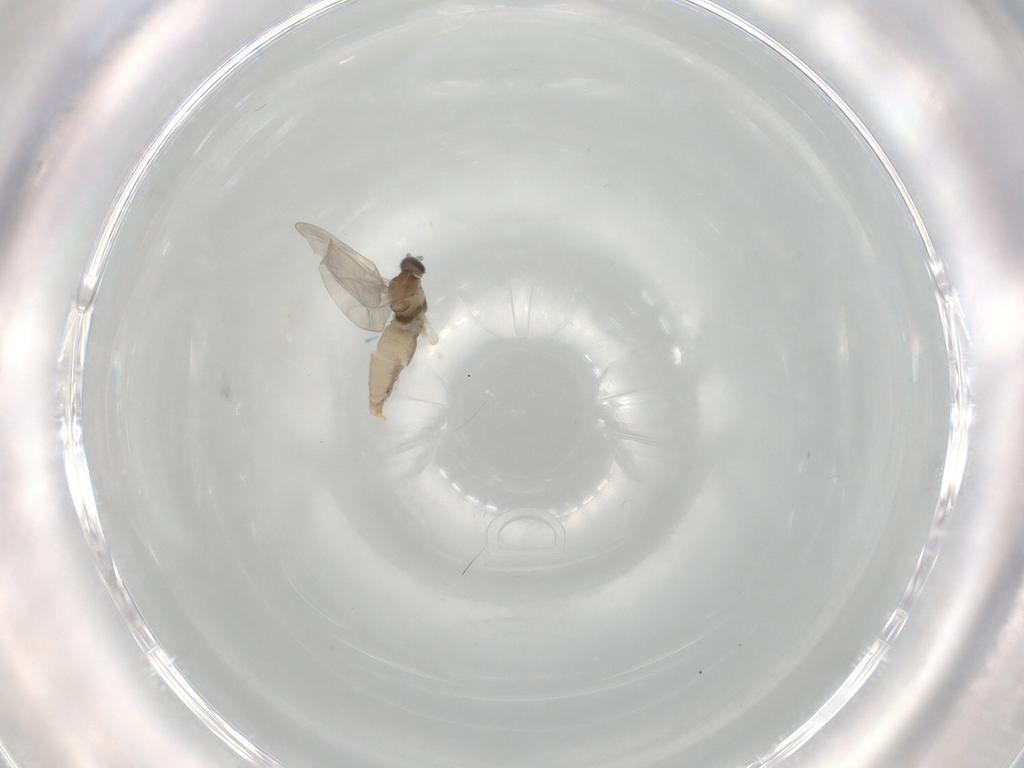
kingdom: Animalia
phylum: Arthropoda
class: Insecta
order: Diptera
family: Cecidomyiidae
